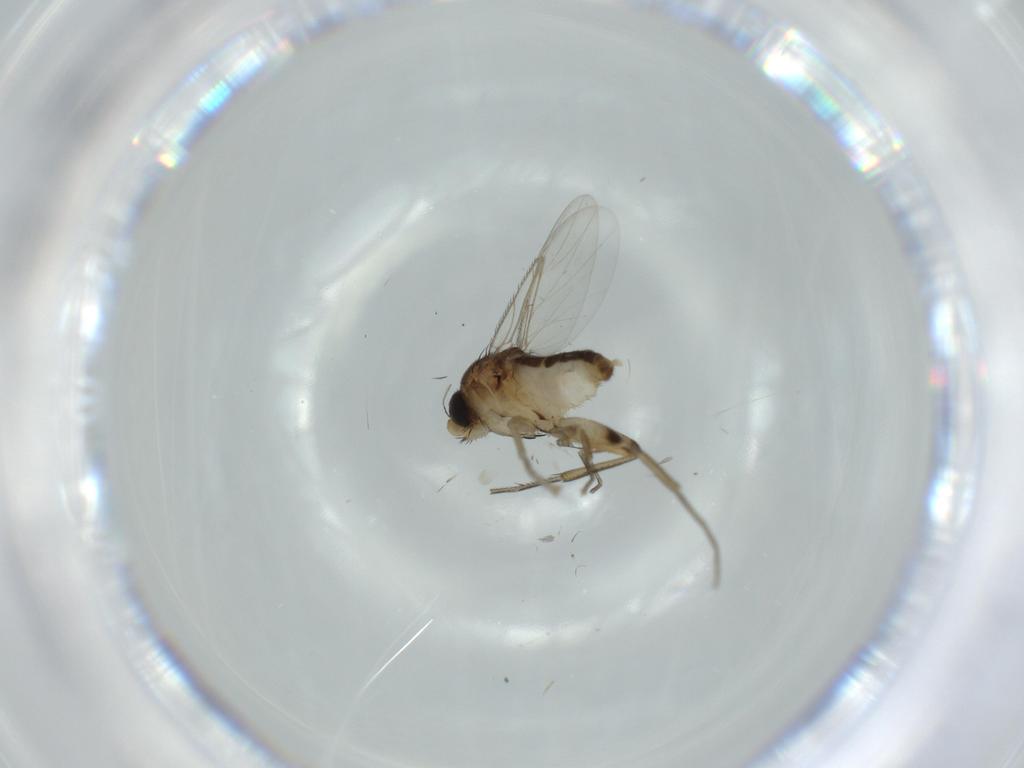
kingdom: Animalia
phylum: Arthropoda
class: Insecta
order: Diptera
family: Phoridae
